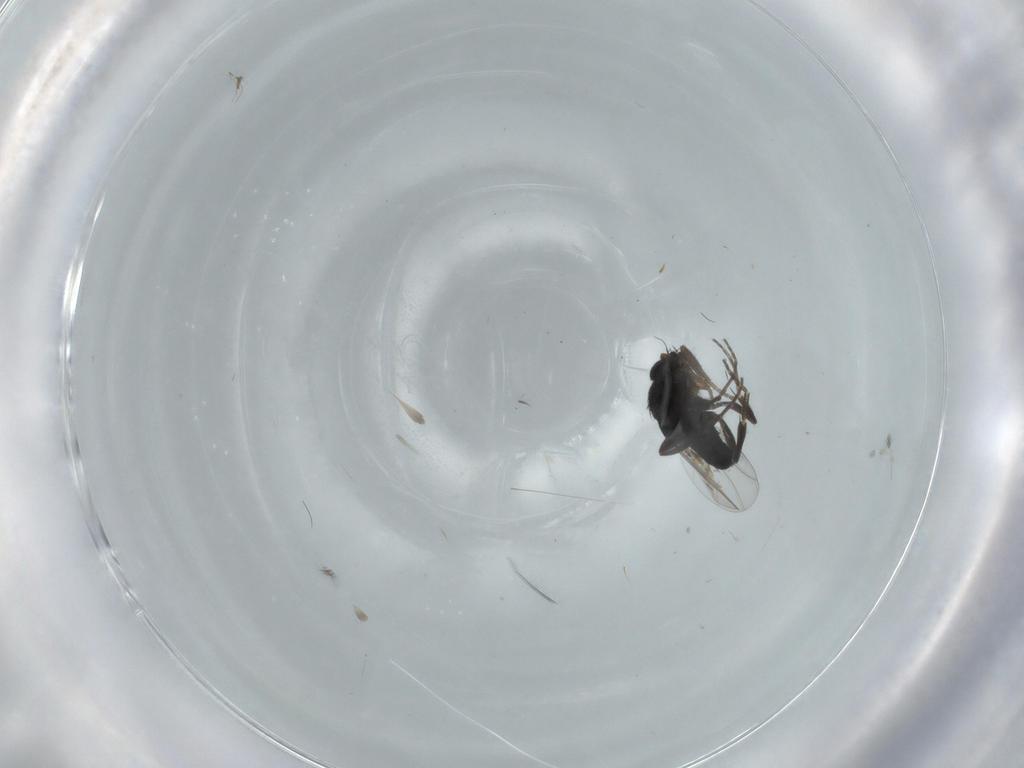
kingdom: Animalia
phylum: Arthropoda
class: Insecta
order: Diptera
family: Phoridae
